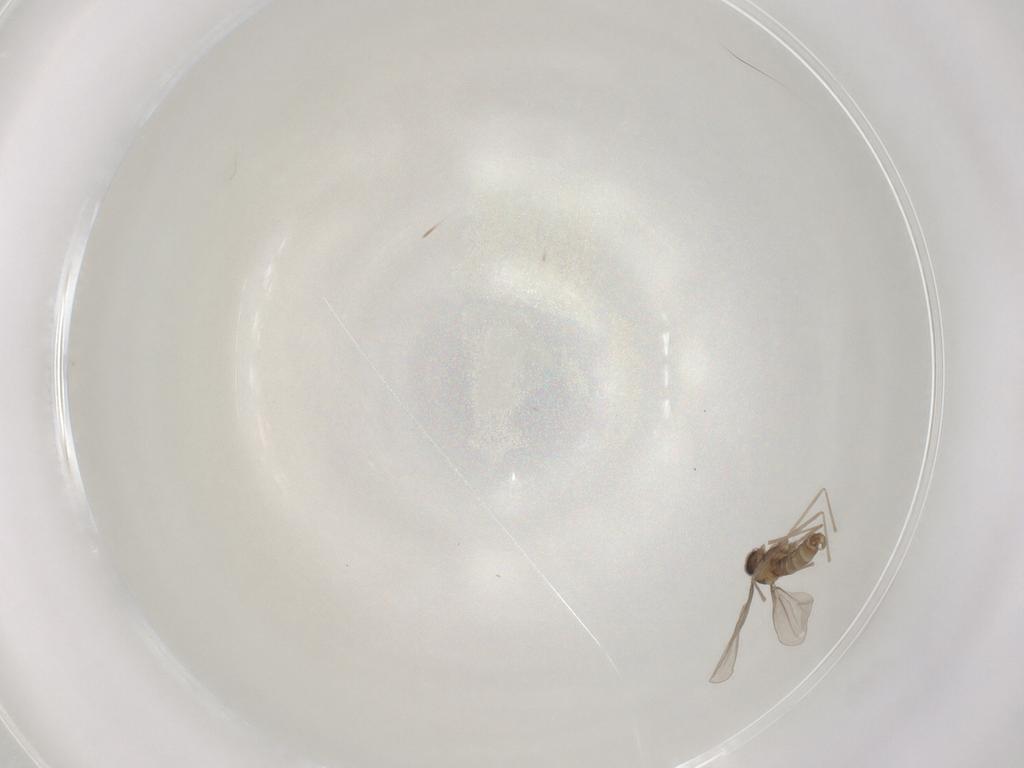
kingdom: Animalia
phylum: Arthropoda
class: Insecta
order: Diptera
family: Cecidomyiidae
